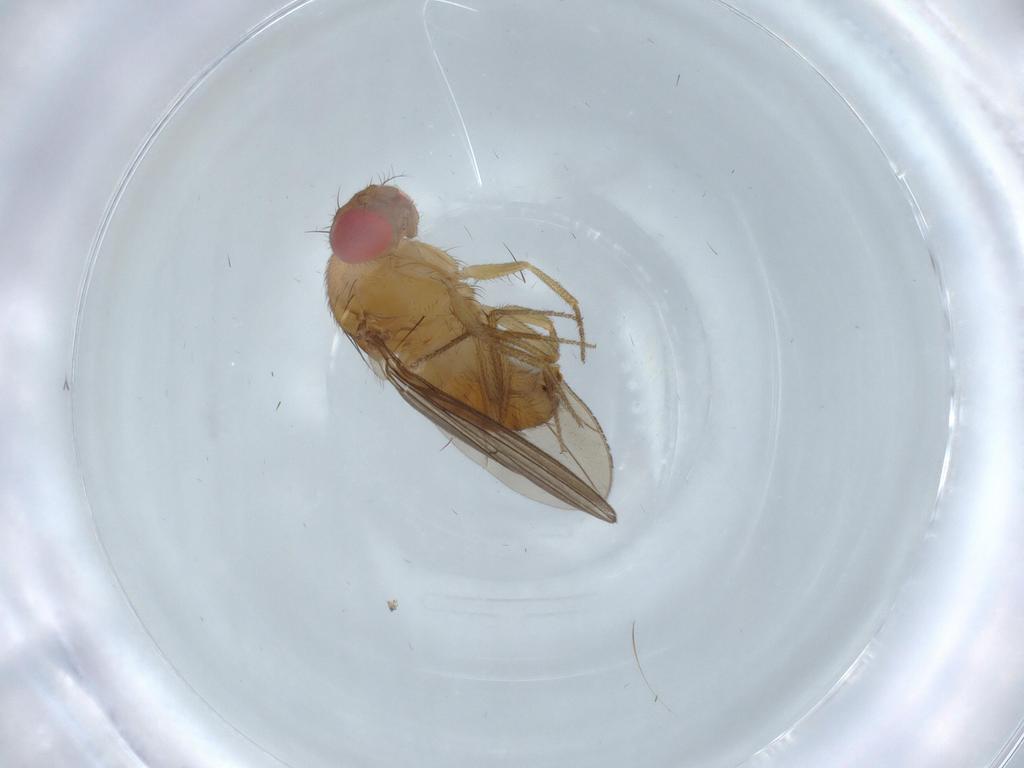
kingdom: Animalia
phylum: Arthropoda
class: Insecta
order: Diptera
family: Drosophilidae
